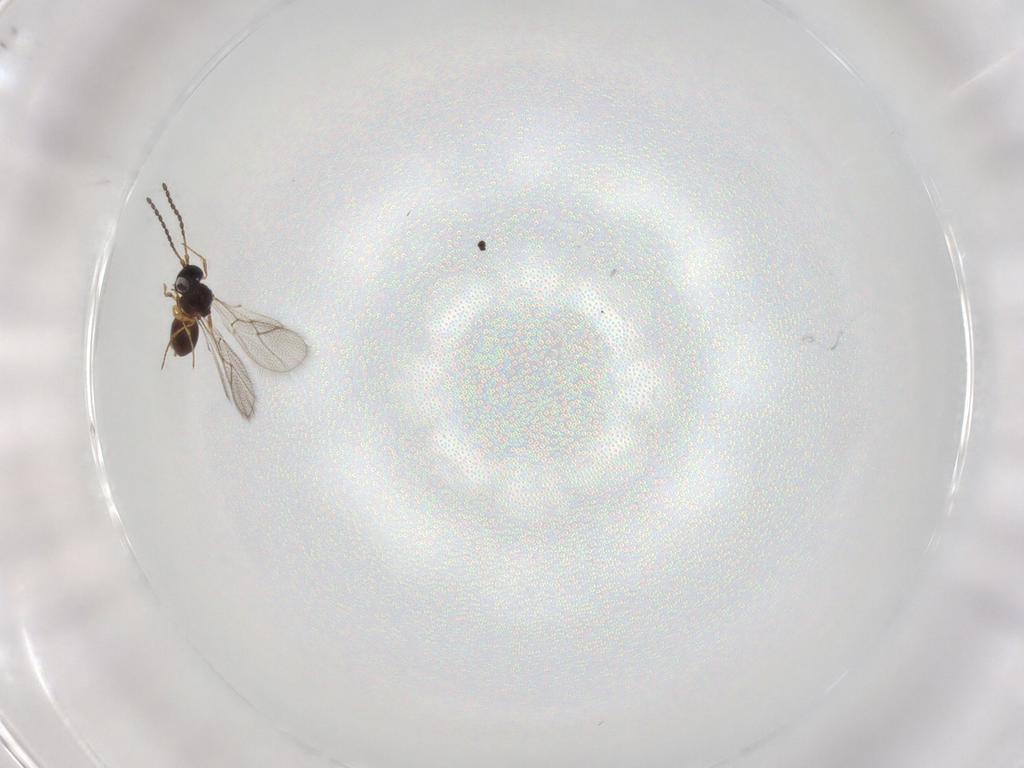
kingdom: Animalia
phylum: Arthropoda
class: Insecta
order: Hymenoptera
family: Figitidae
